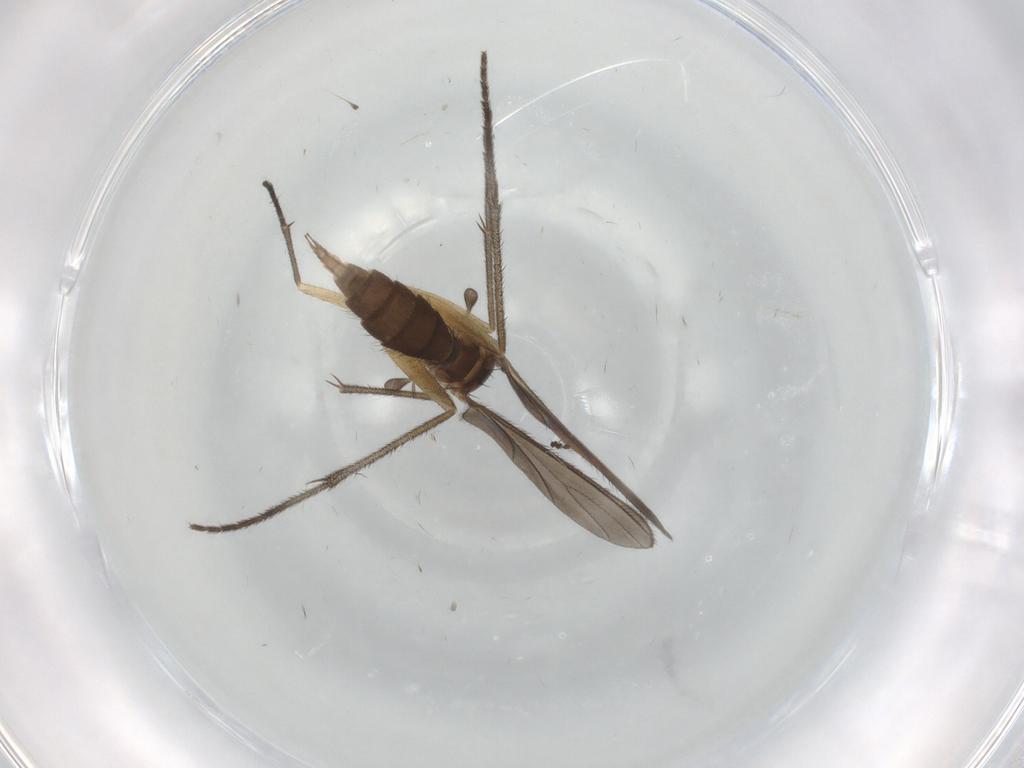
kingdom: Animalia
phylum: Arthropoda
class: Insecta
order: Diptera
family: Sciaridae
